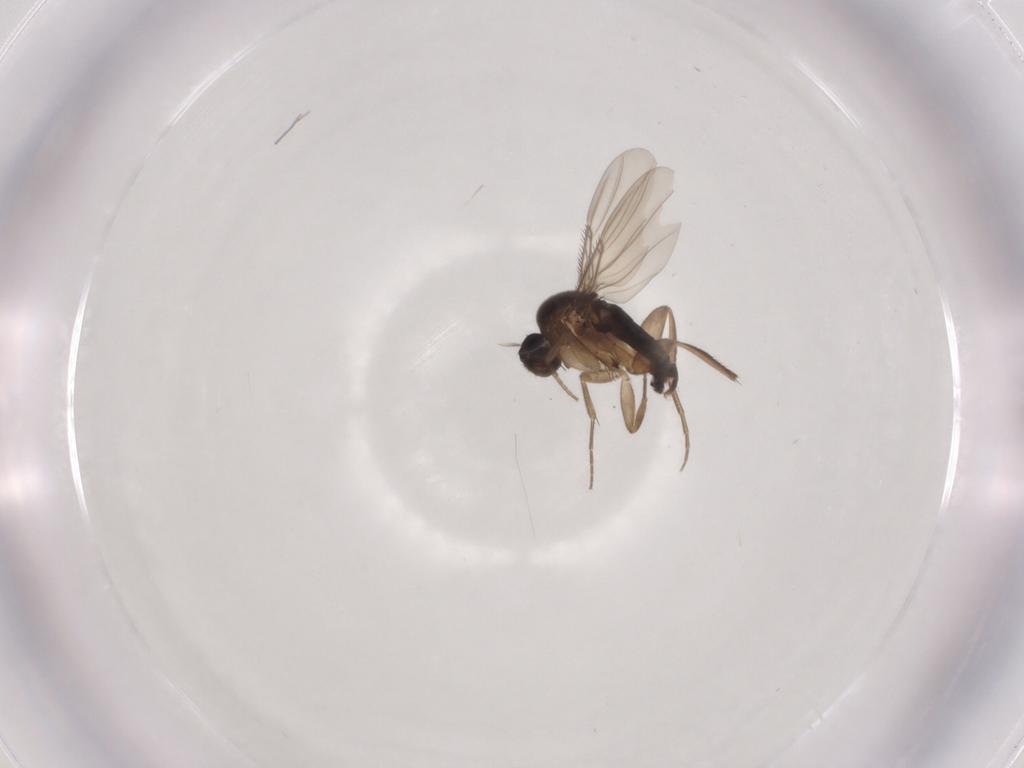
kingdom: Animalia
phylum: Arthropoda
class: Insecta
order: Diptera
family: Phoridae
